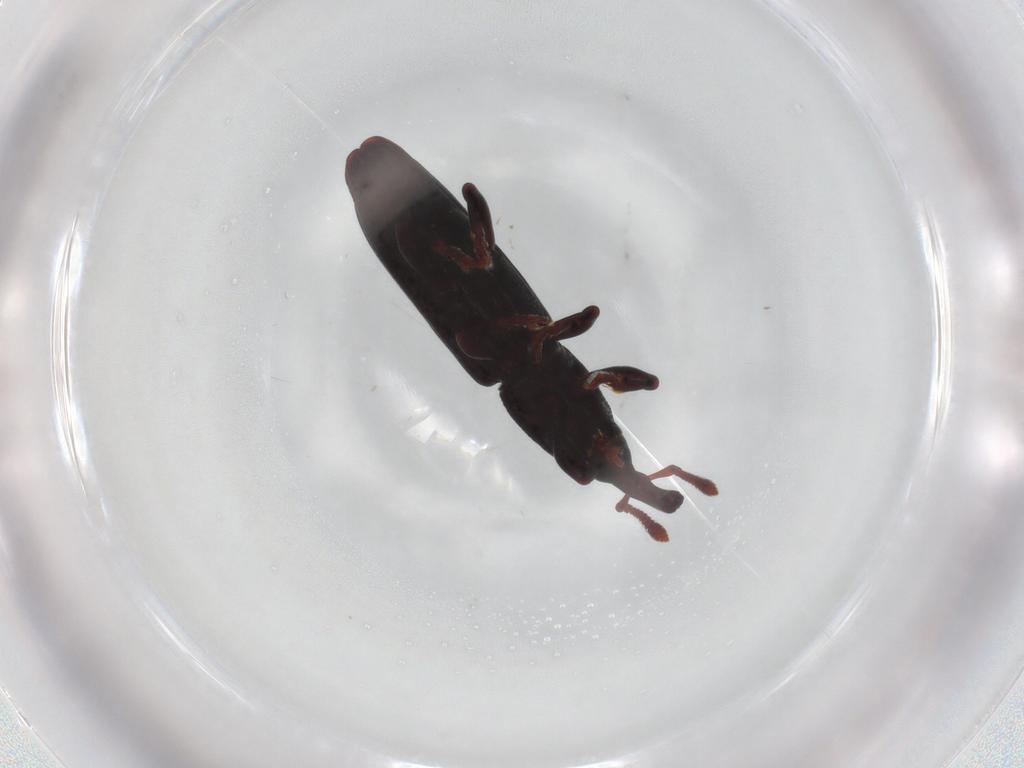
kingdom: Animalia
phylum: Arthropoda
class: Insecta
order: Coleoptera
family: Curculionidae
